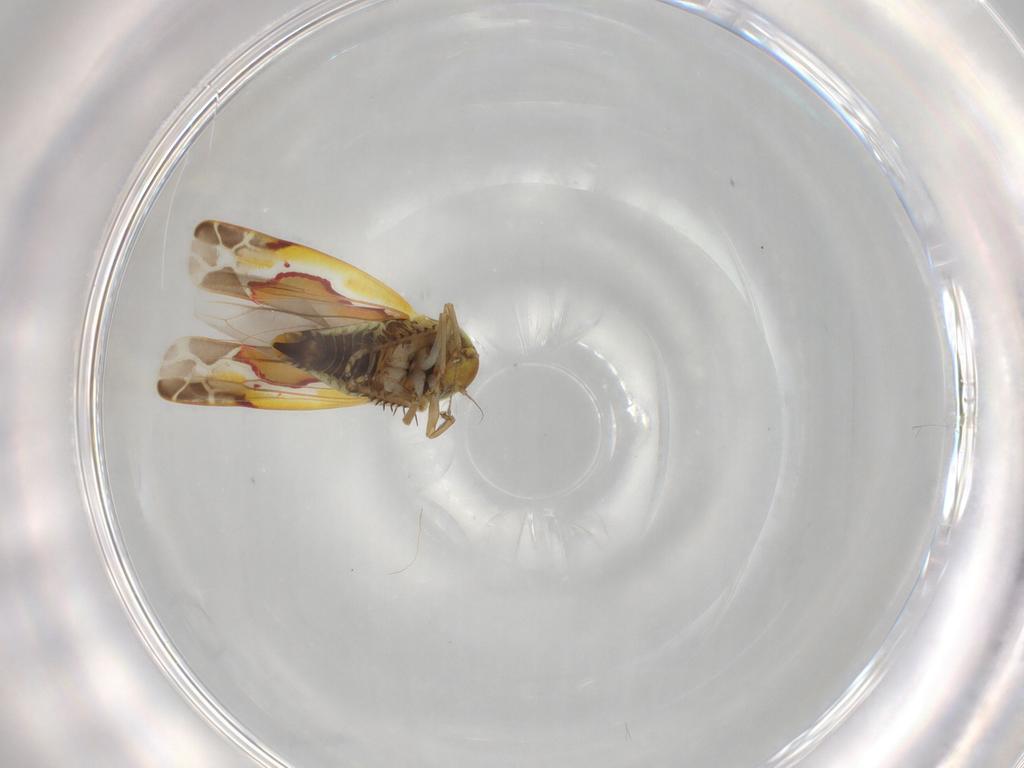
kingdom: Animalia
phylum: Arthropoda
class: Insecta
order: Hemiptera
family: Cicadellidae
